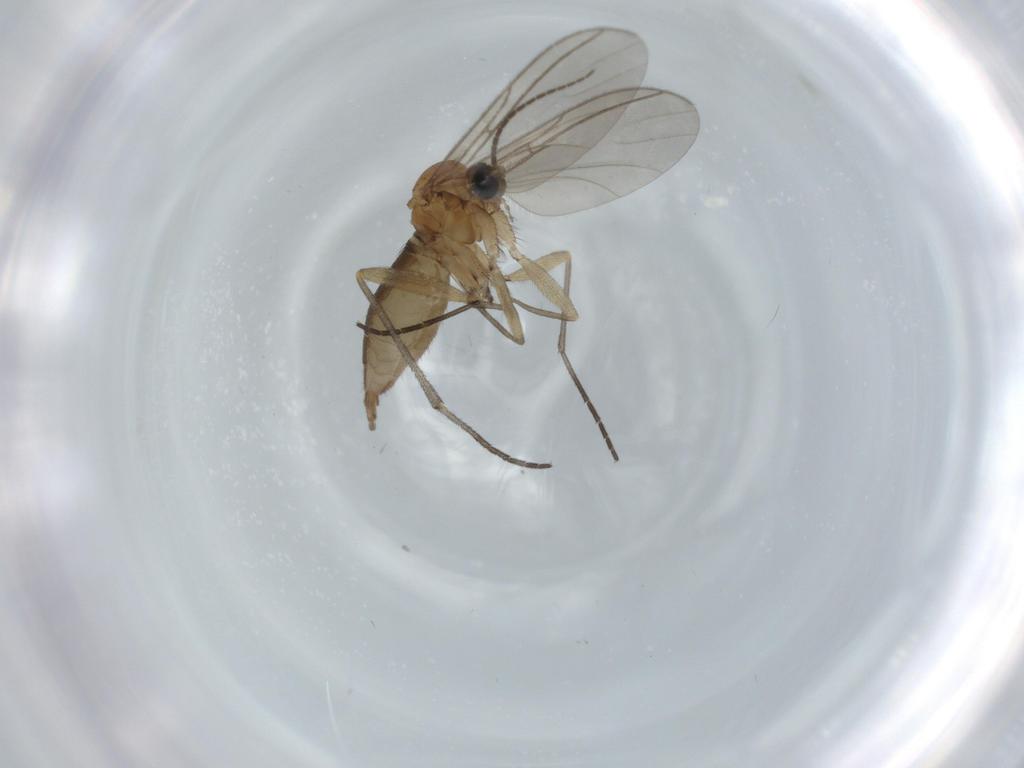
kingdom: Animalia
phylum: Arthropoda
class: Insecta
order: Diptera
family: Sciaridae
